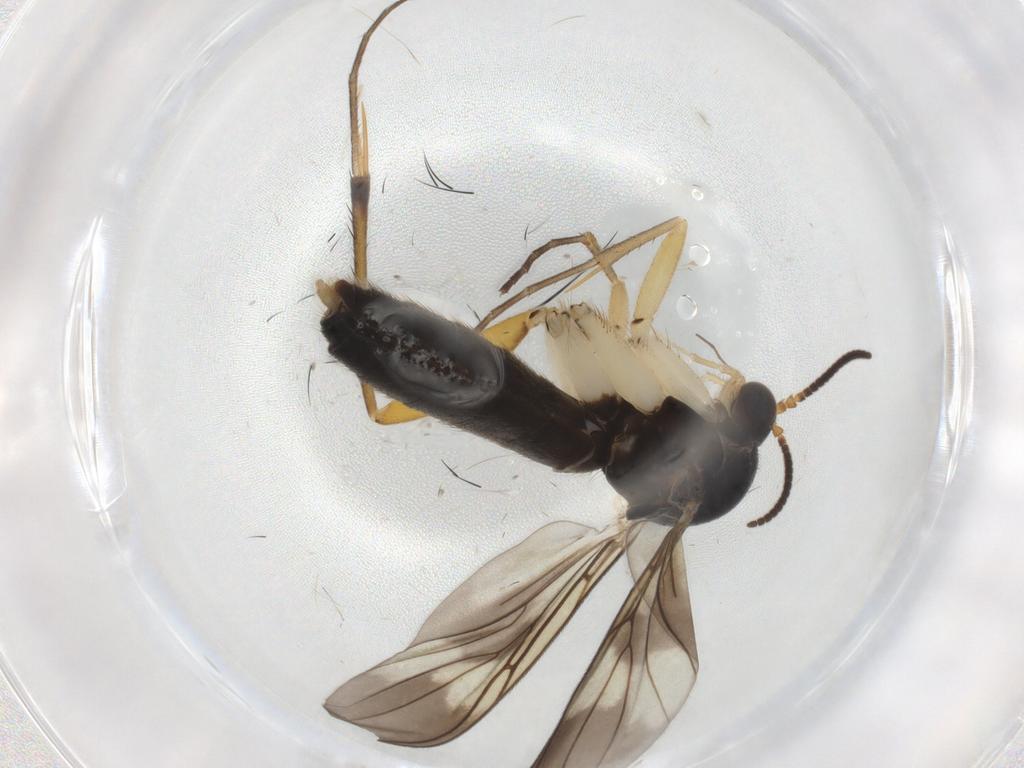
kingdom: Animalia
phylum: Arthropoda
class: Insecta
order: Diptera
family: Mycetophilidae
